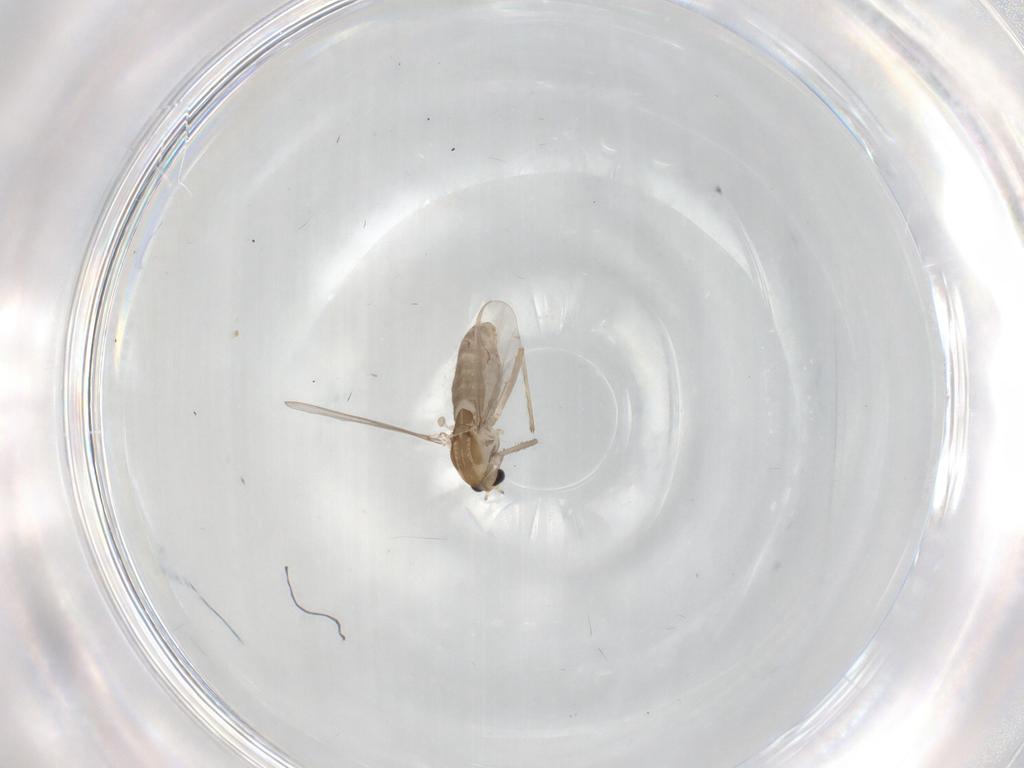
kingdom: Animalia
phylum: Arthropoda
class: Insecta
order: Diptera
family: Chironomidae
